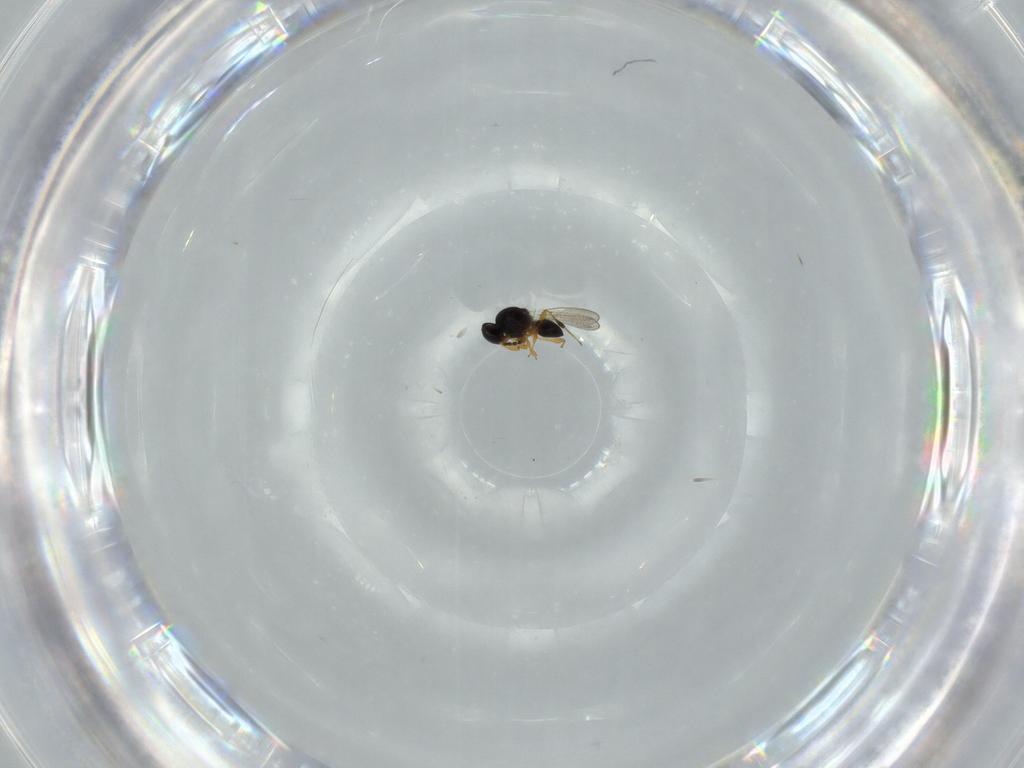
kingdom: Animalia
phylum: Arthropoda
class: Insecta
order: Hymenoptera
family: Platygastridae
